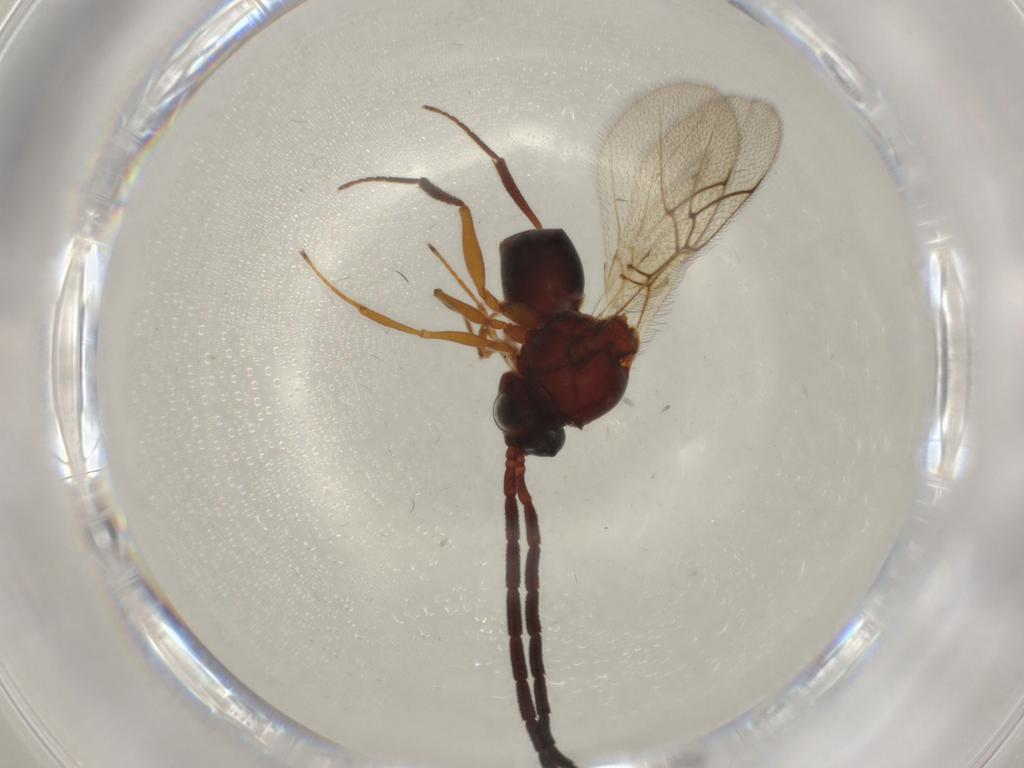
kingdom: Animalia
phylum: Arthropoda
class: Insecta
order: Hymenoptera
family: Figitidae
